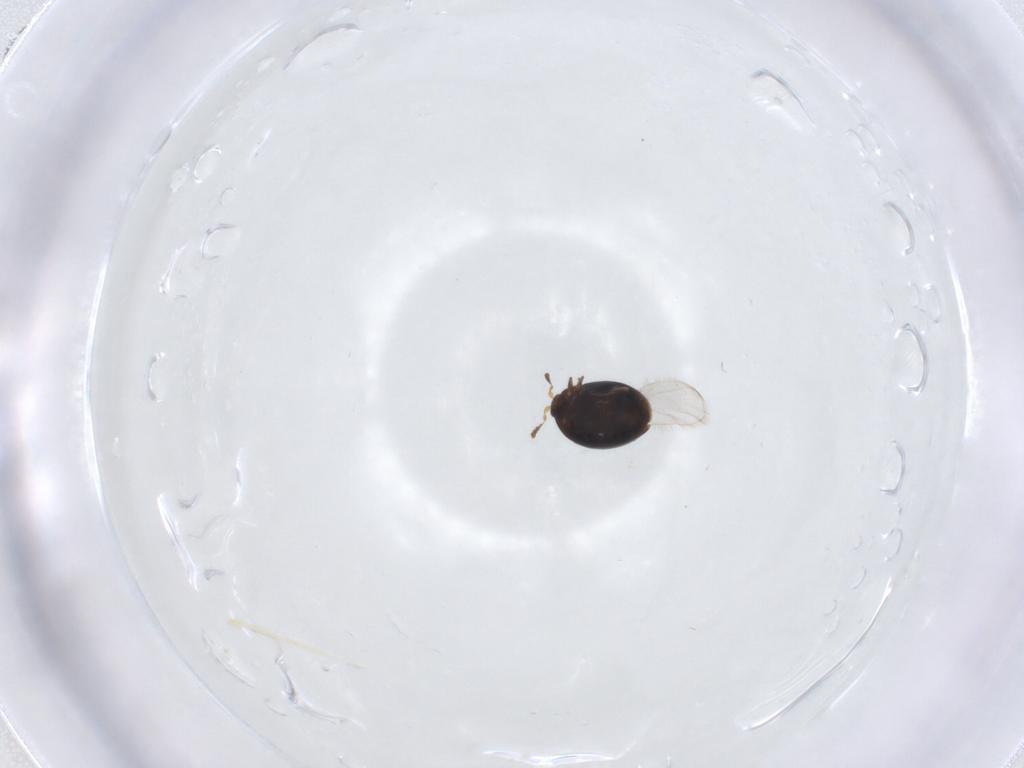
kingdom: Animalia
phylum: Arthropoda
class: Insecta
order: Coleoptera
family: Corylophidae
